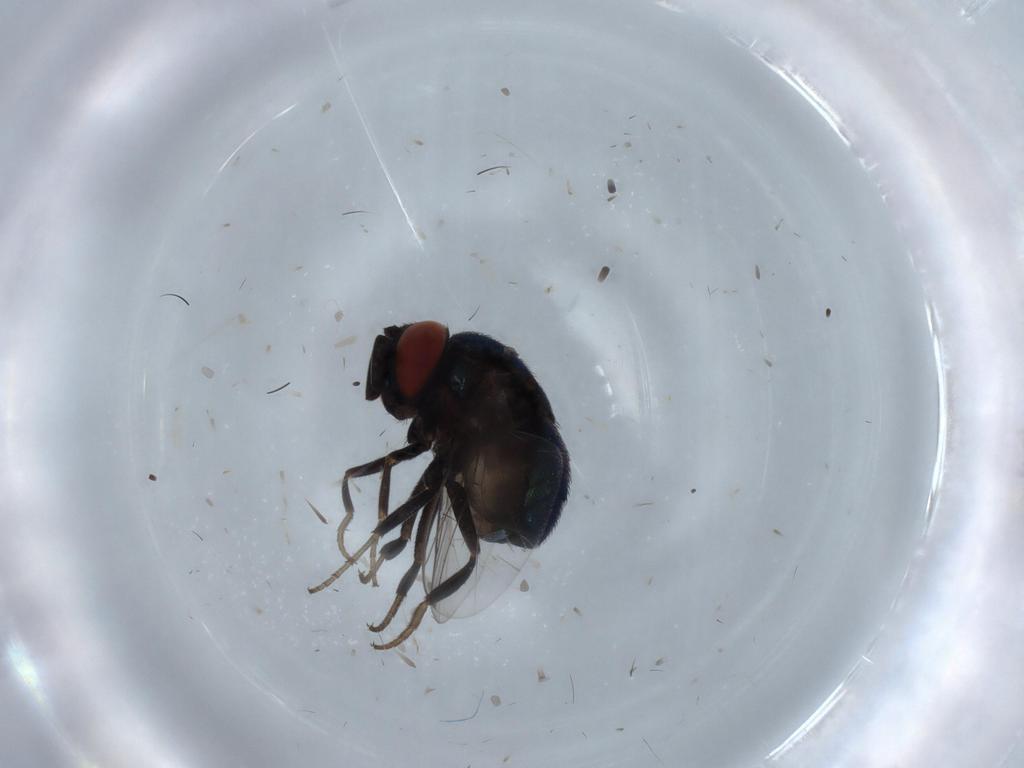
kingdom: Animalia
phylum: Arthropoda
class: Insecta
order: Diptera
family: Cryptochetidae
